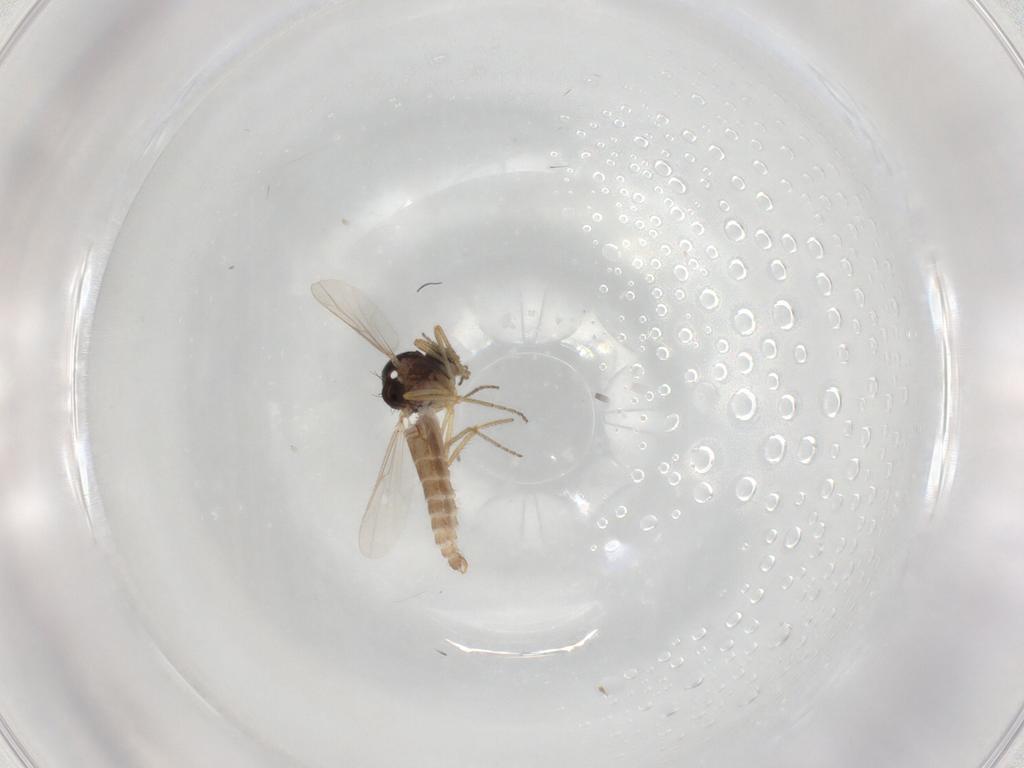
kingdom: Animalia
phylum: Arthropoda
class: Insecta
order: Diptera
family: Ceratopogonidae
